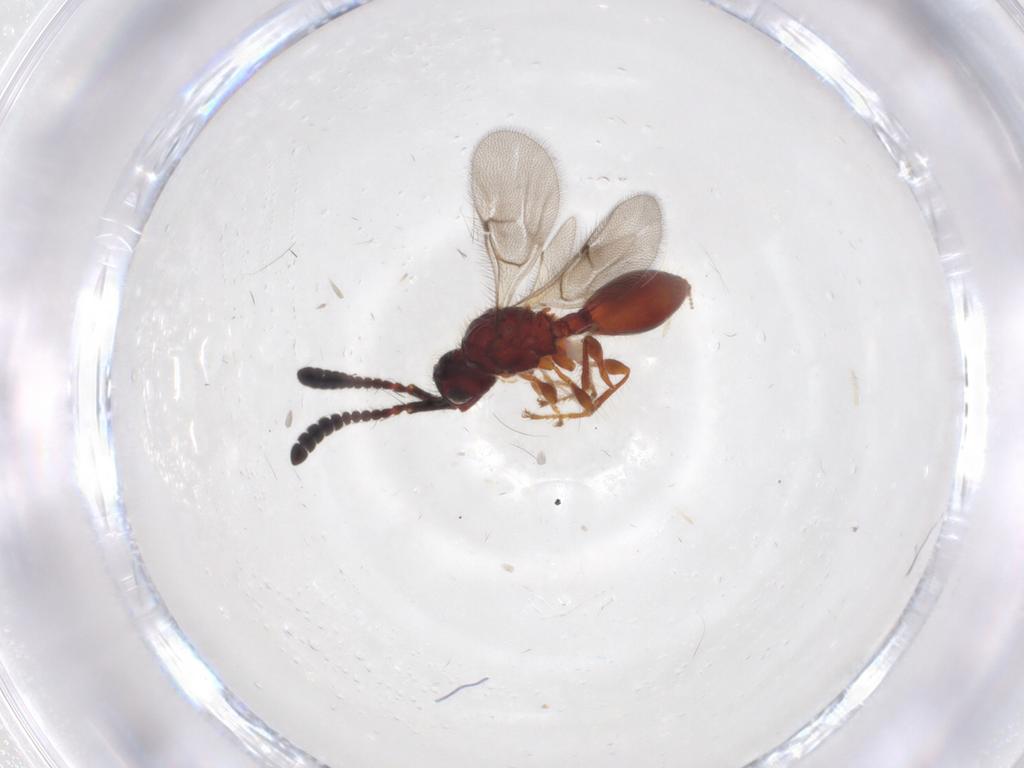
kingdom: Animalia
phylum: Arthropoda
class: Insecta
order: Hymenoptera
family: Diapriidae
